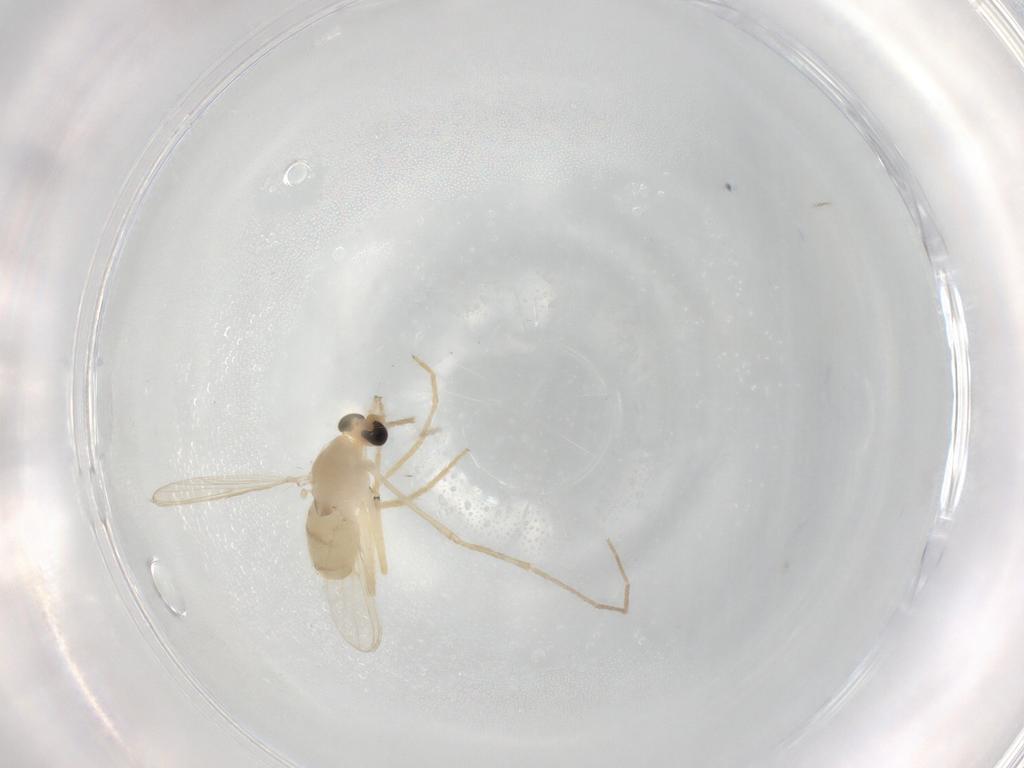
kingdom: Animalia
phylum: Arthropoda
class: Insecta
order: Diptera
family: Chironomidae
